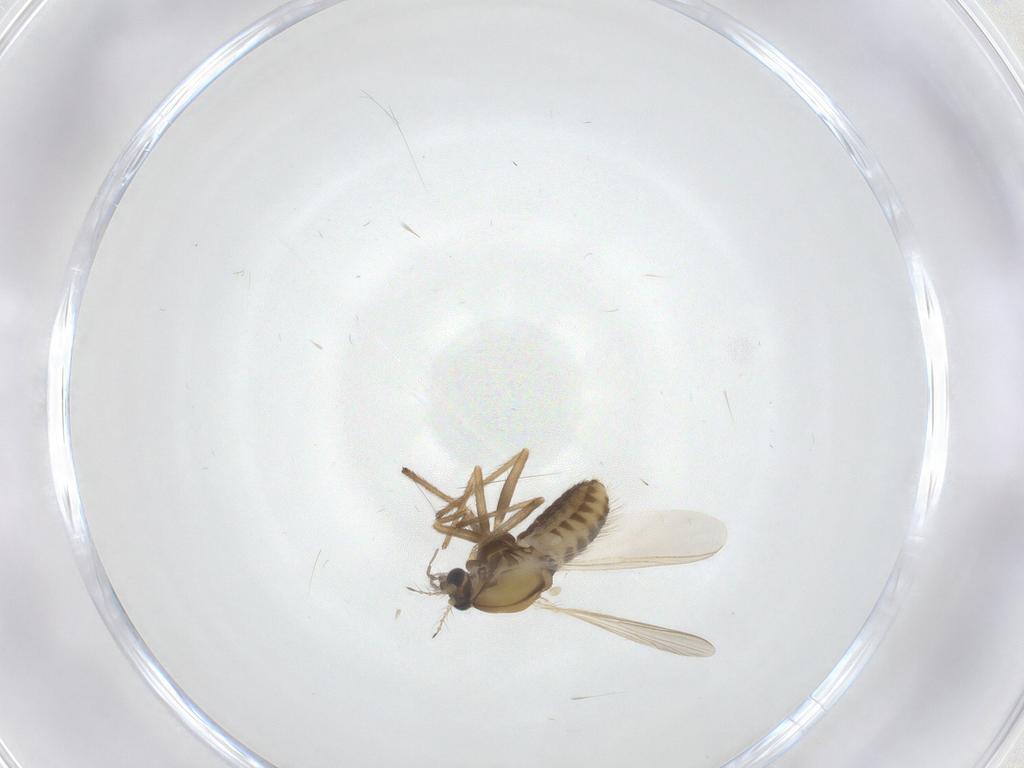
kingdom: Animalia
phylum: Arthropoda
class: Insecta
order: Diptera
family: Chironomidae
